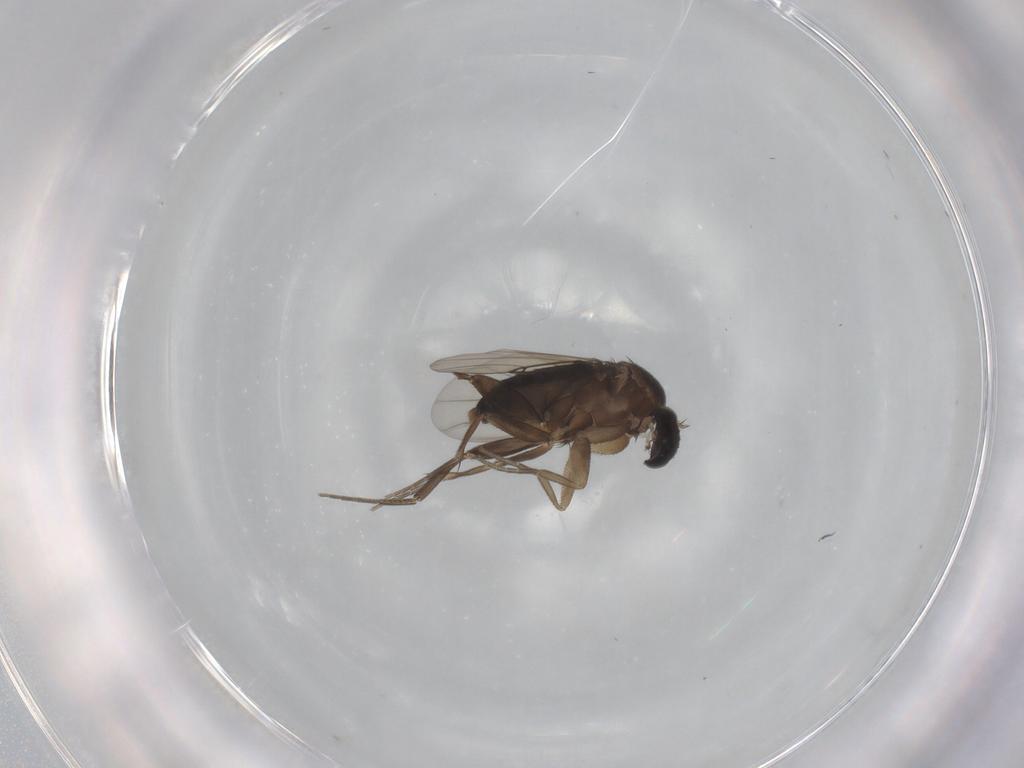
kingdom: Animalia
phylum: Arthropoda
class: Insecta
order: Diptera
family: Phoridae
